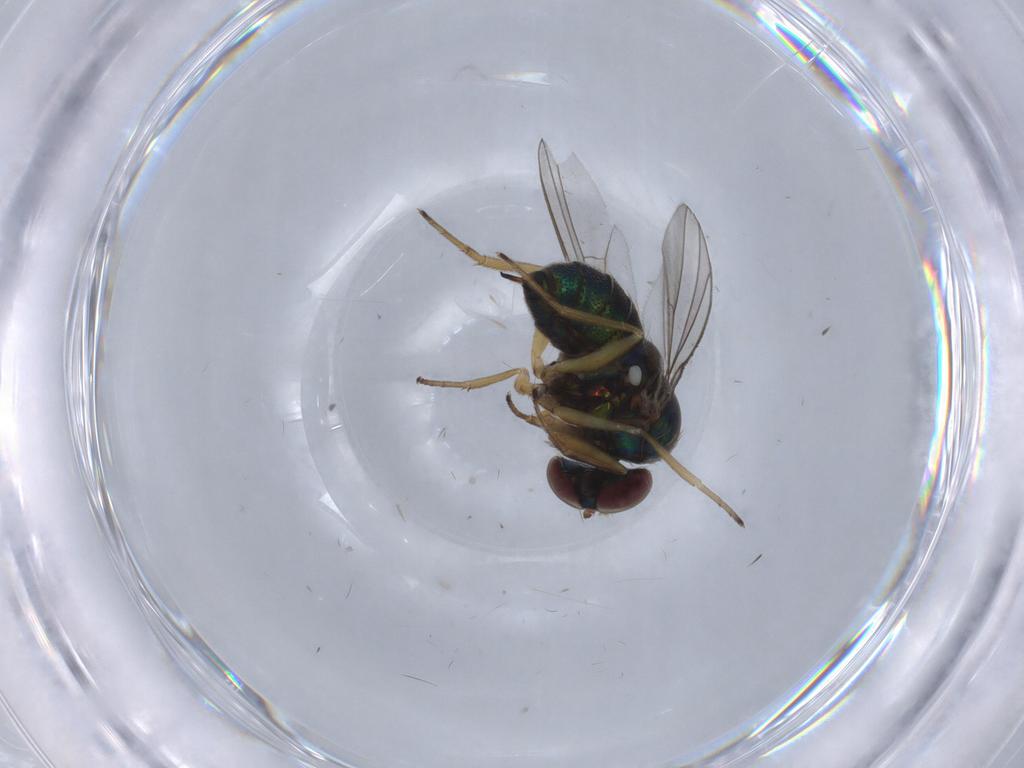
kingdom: Animalia
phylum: Arthropoda
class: Insecta
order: Diptera
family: Dolichopodidae
